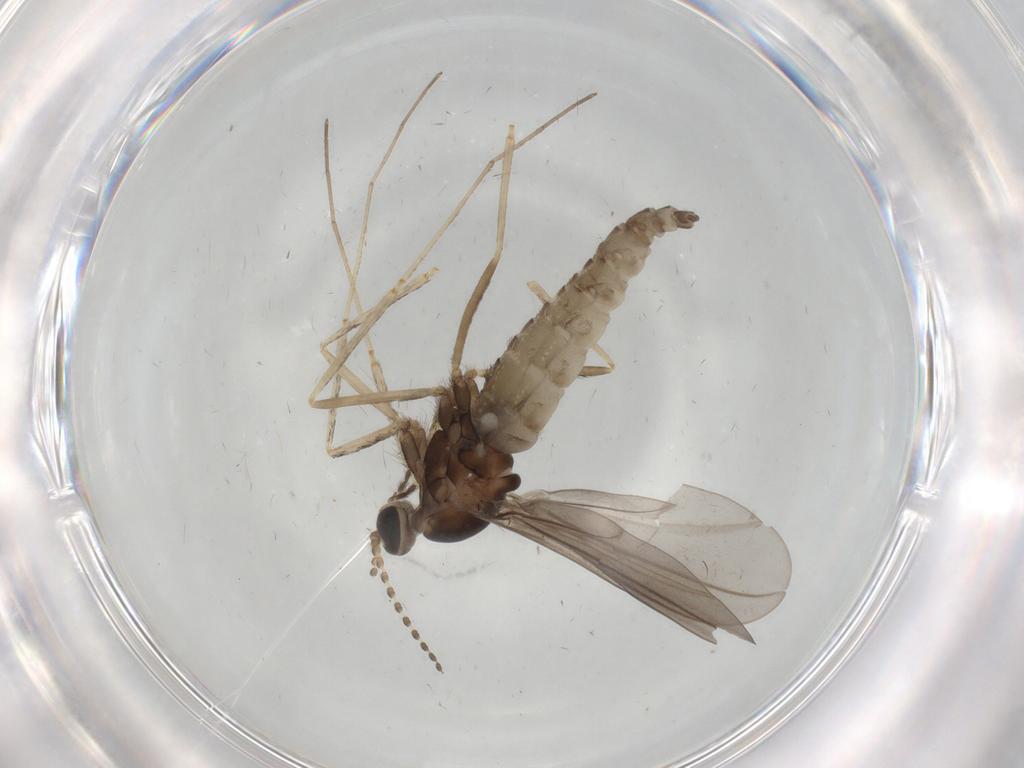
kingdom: Animalia
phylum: Arthropoda
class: Insecta
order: Diptera
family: Cecidomyiidae
